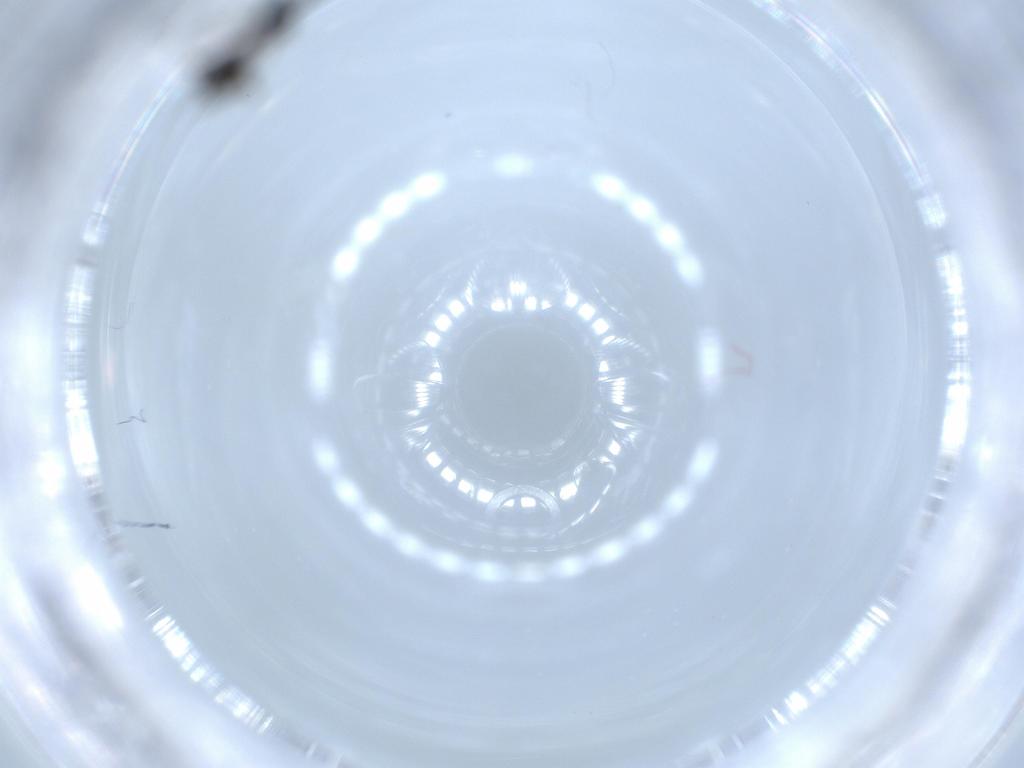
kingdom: Animalia
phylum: Arthropoda
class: Insecta
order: Hymenoptera
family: Figitidae
